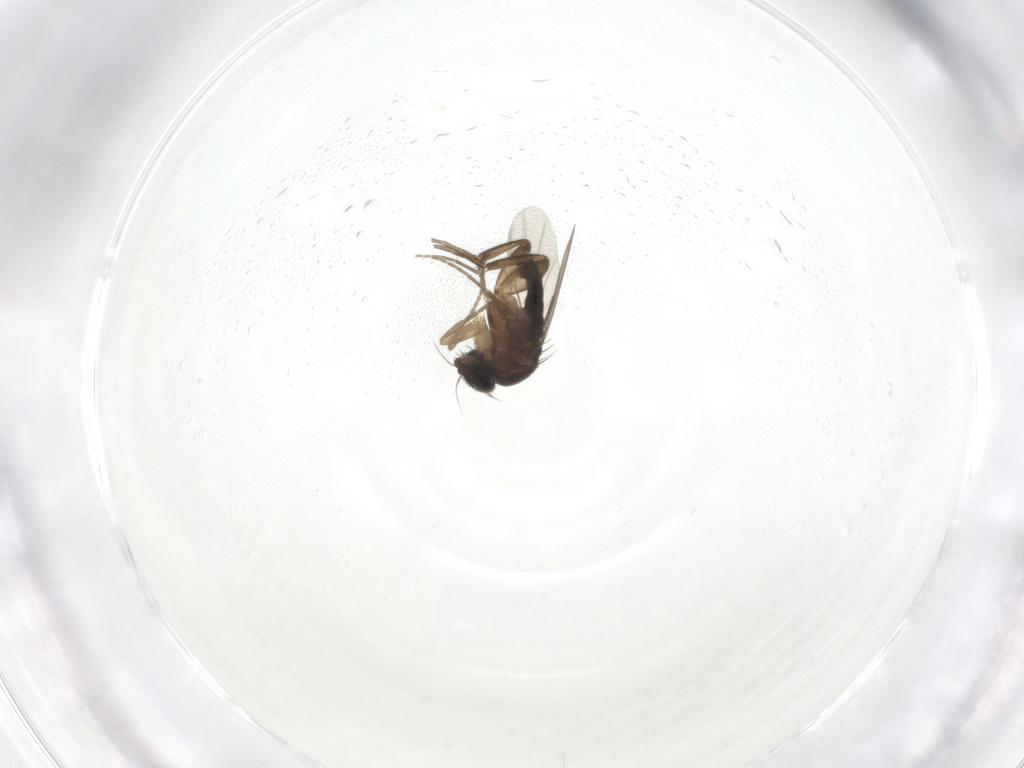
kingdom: Animalia
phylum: Arthropoda
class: Insecta
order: Diptera
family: Phoridae
